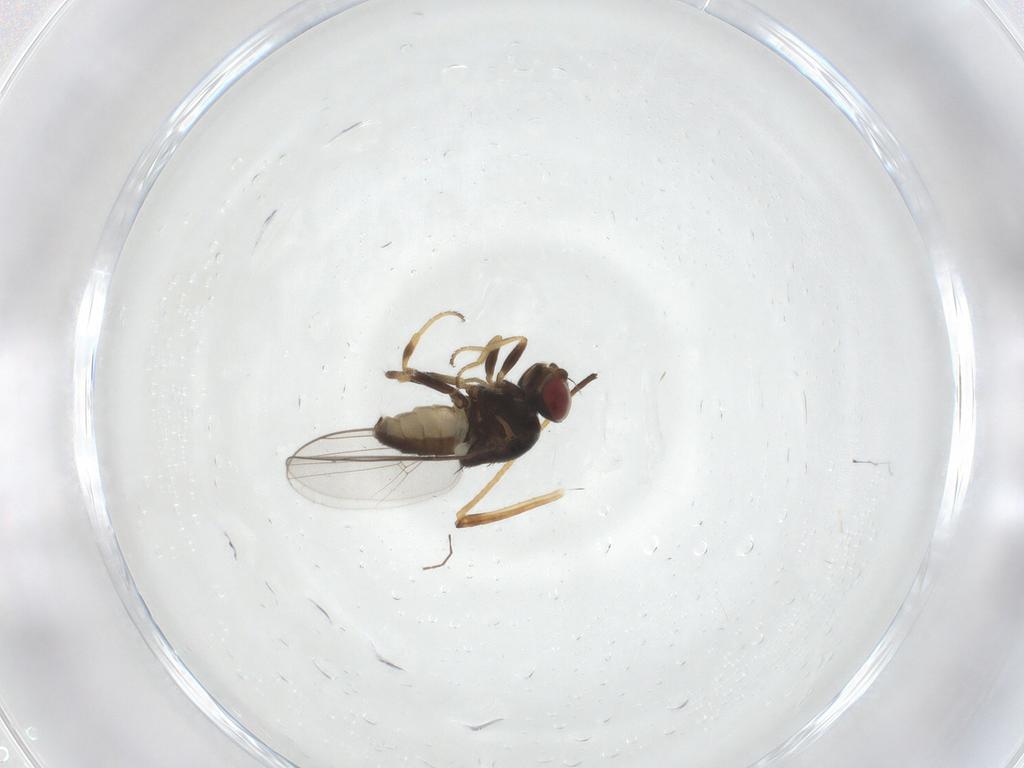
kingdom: Animalia
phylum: Arthropoda
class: Insecta
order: Diptera
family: Chloropidae
